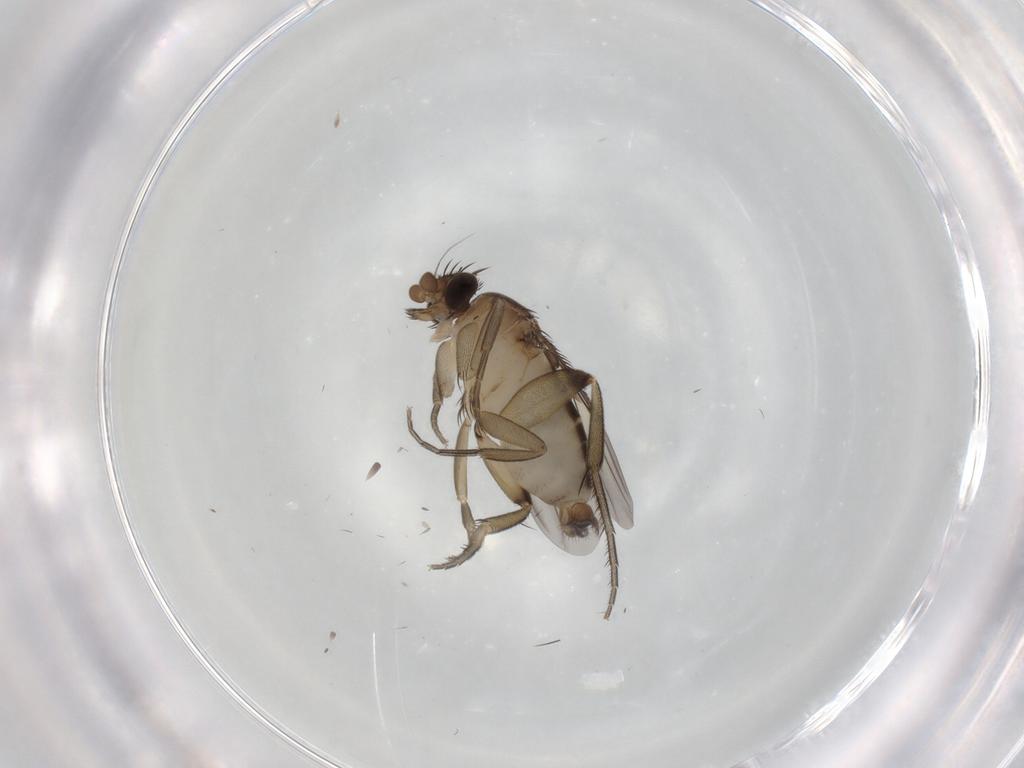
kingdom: Animalia
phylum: Arthropoda
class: Insecta
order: Diptera
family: Phoridae
